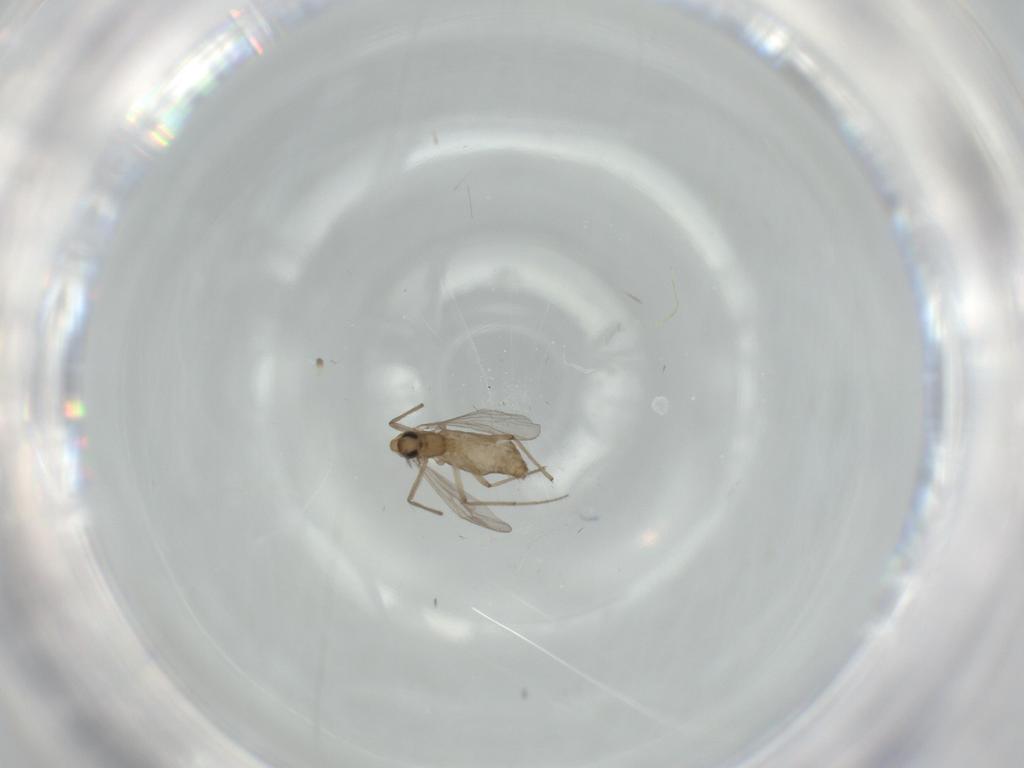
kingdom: Animalia
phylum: Arthropoda
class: Insecta
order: Diptera
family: Chironomidae
